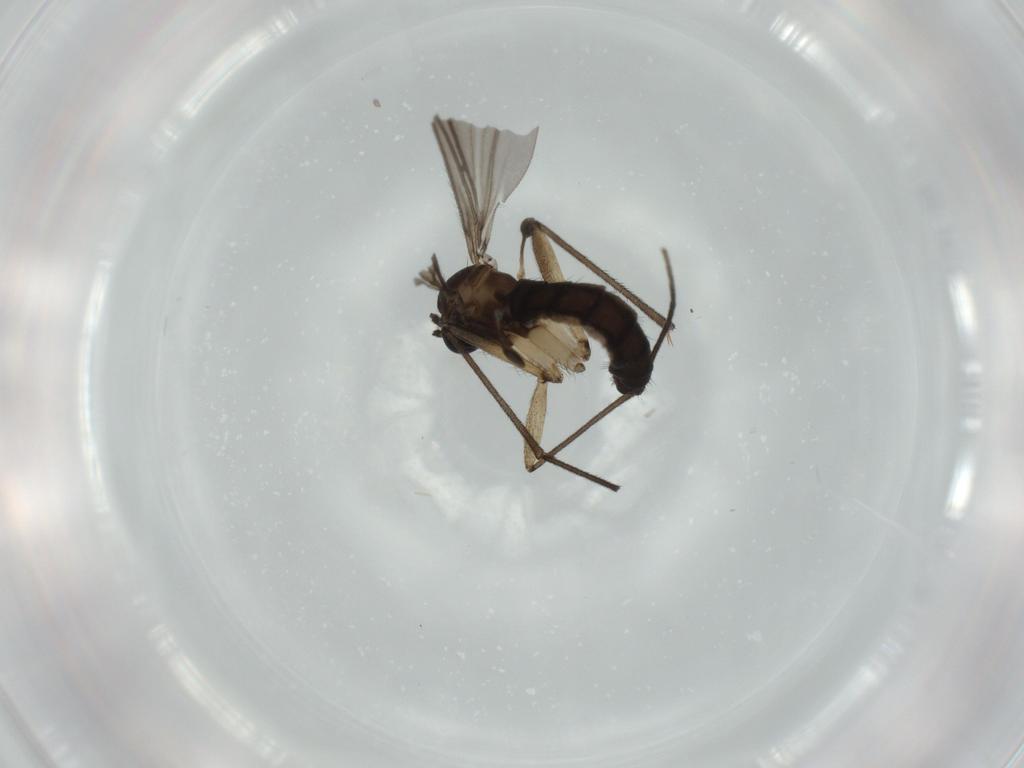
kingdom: Animalia
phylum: Arthropoda
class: Insecta
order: Diptera
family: Sciaridae
